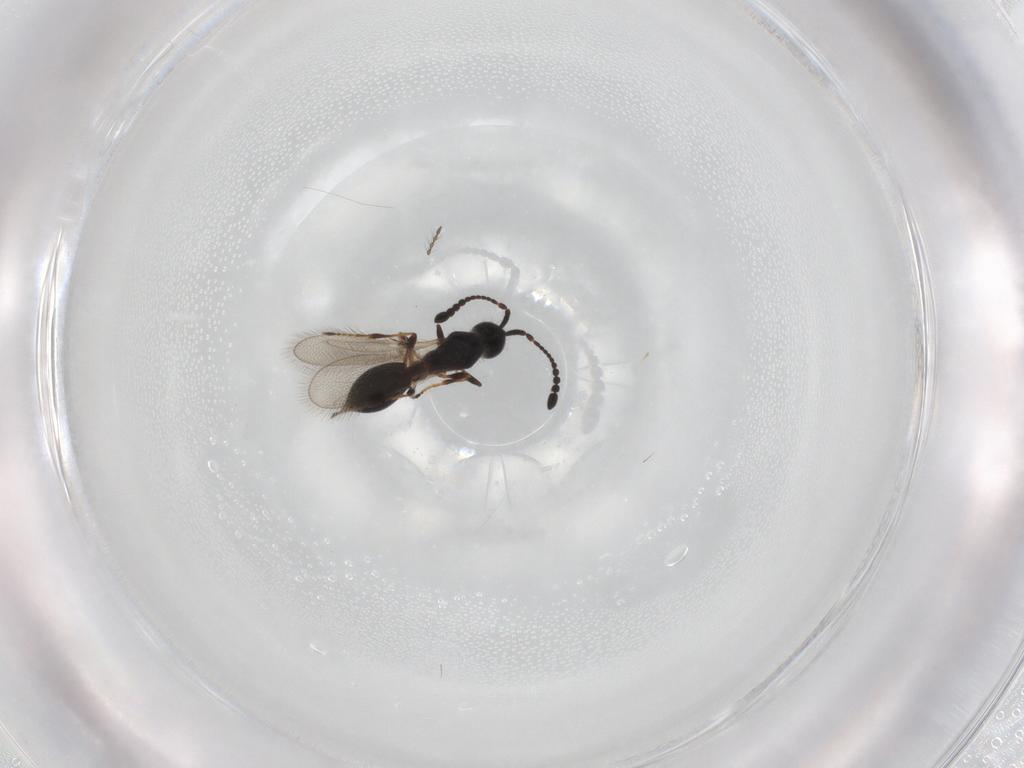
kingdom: Animalia
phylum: Arthropoda
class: Insecta
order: Hymenoptera
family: Diapriidae
